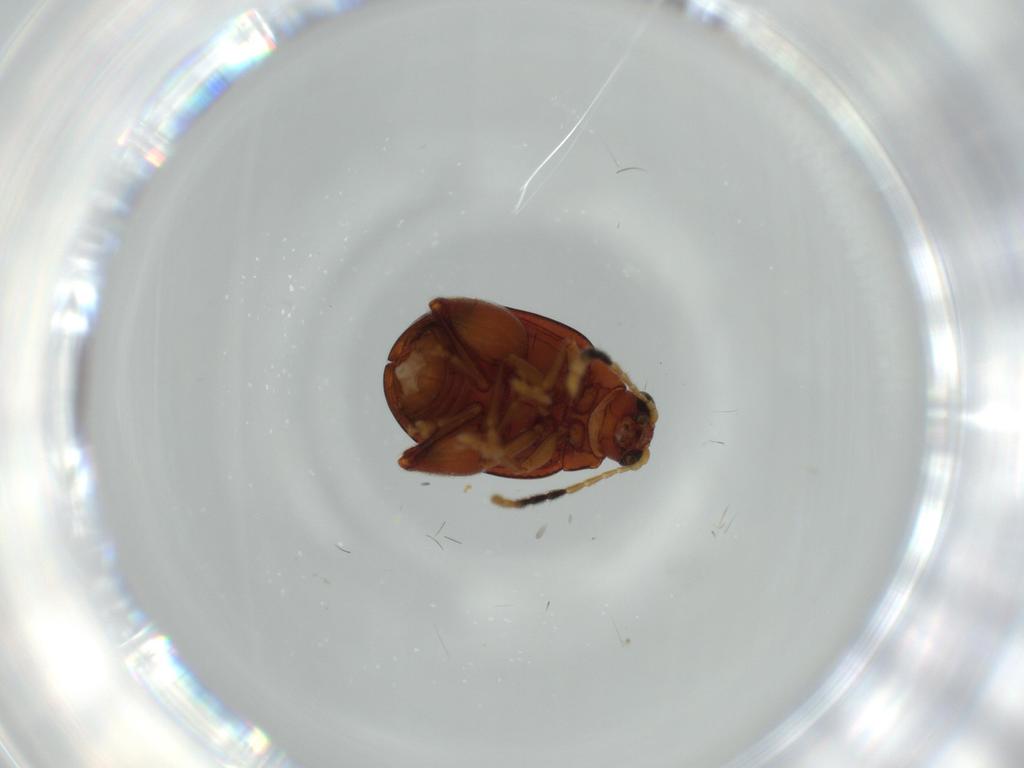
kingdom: Animalia
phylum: Arthropoda
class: Insecta
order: Coleoptera
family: Chrysomelidae
